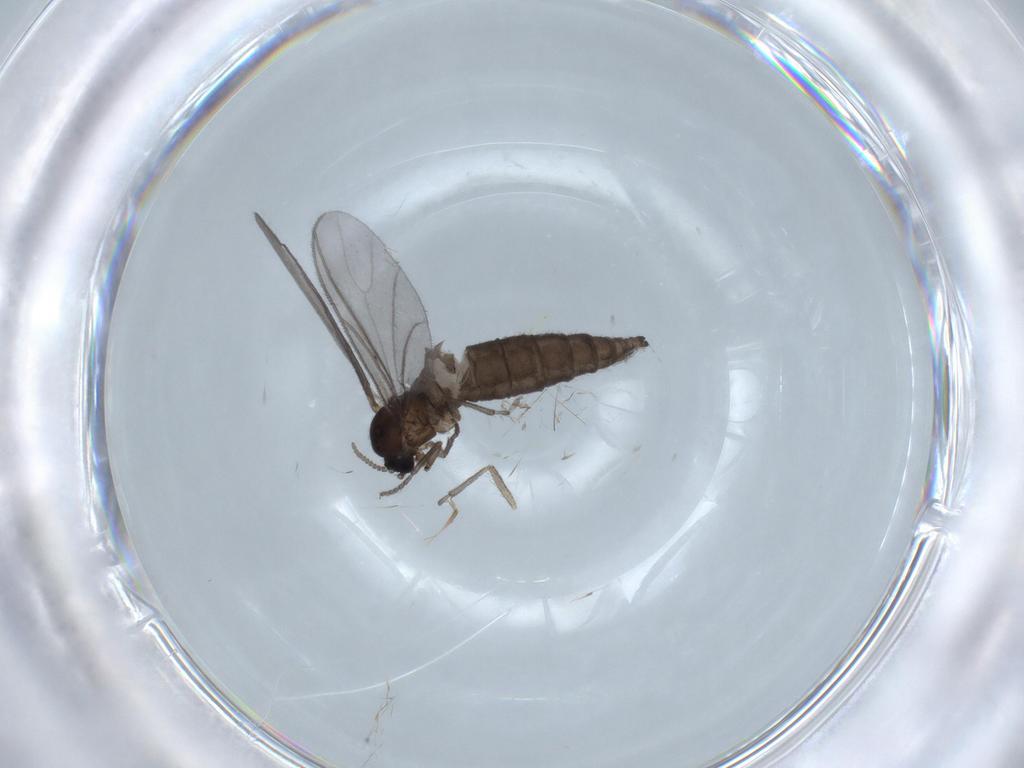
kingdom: Animalia
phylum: Arthropoda
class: Insecta
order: Diptera
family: Sciaridae
